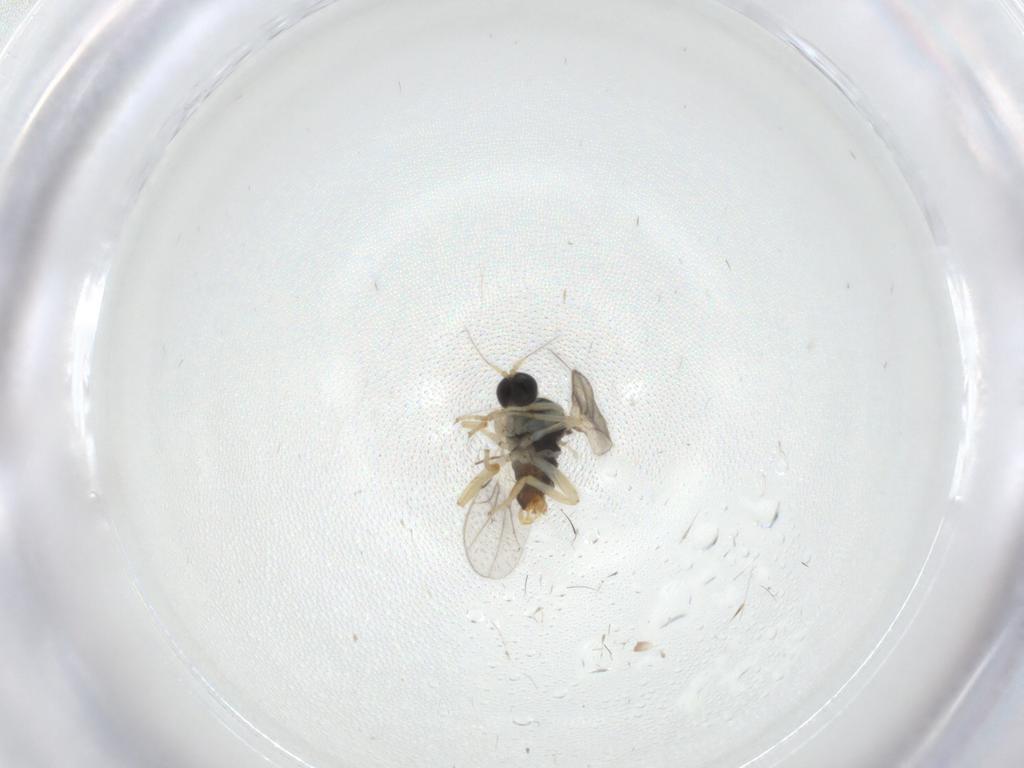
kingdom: Animalia
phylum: Arthropoda
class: Insecta
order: Diptera
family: Hybotidae
